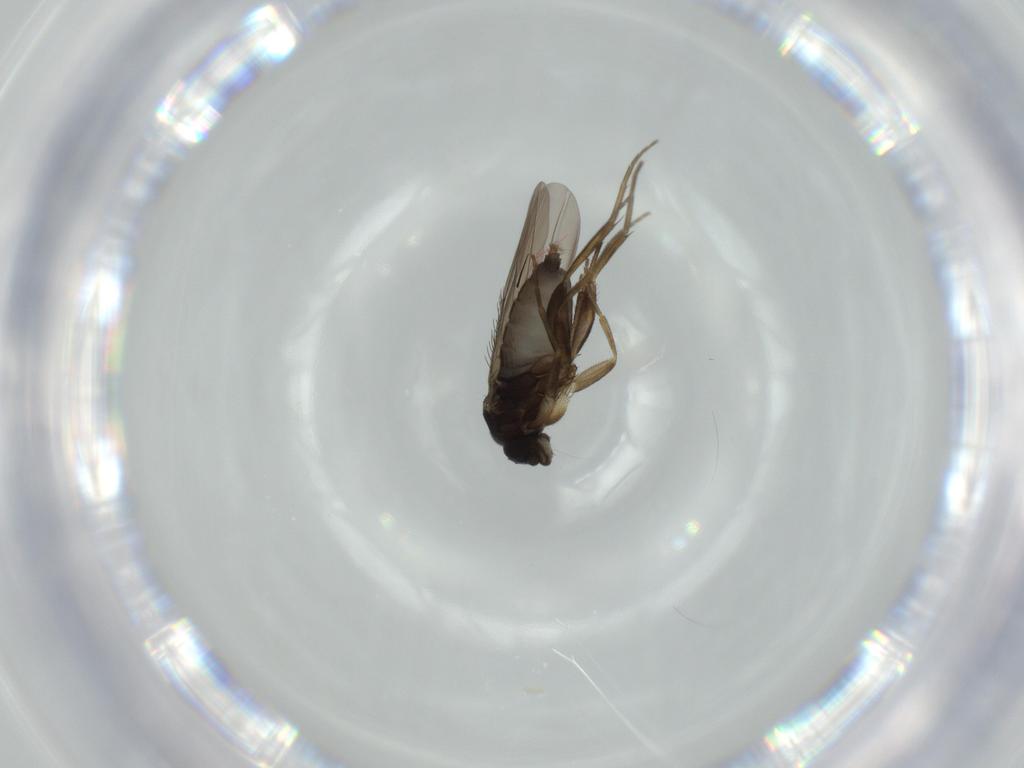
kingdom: Animalia
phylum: Arthropoda
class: Insecta
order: Diptera
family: Phoridae
